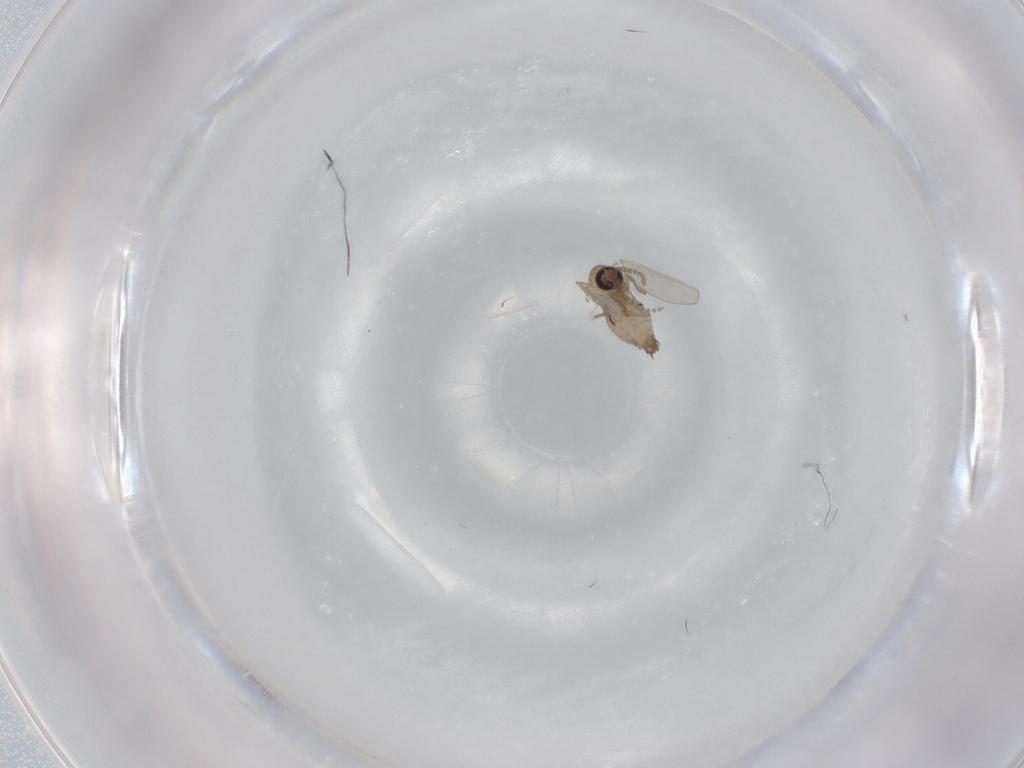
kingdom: Animalia
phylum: Arthropoda
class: Insecta
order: Diptera
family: Psychodidae
